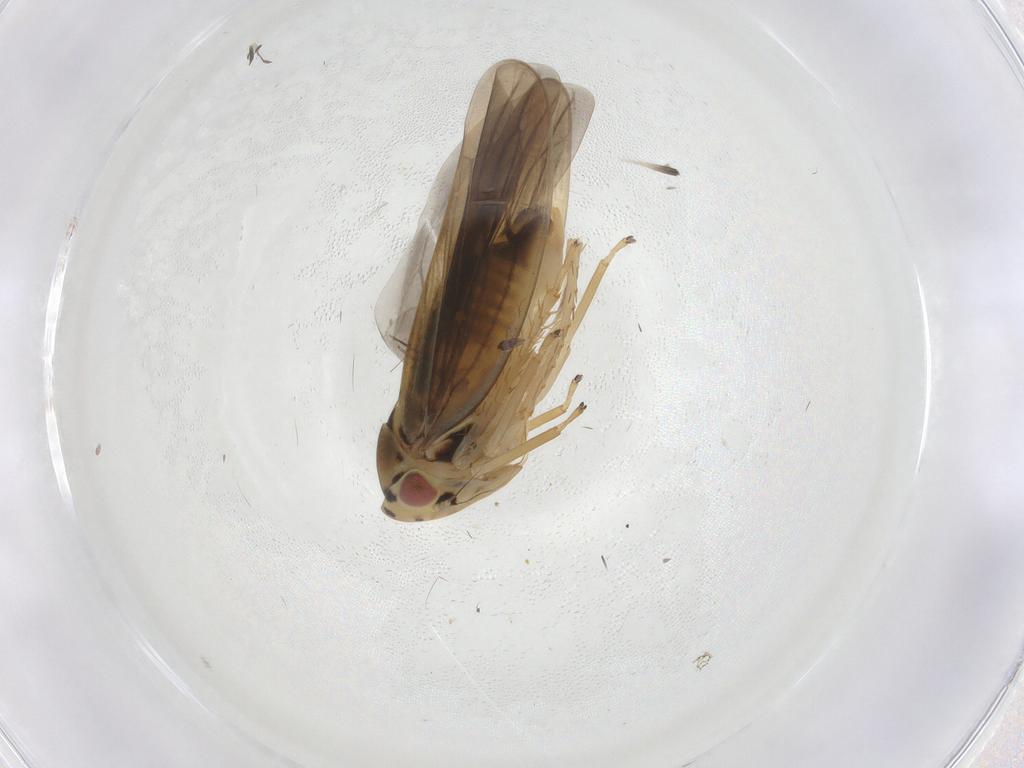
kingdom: Animalia
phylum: Arthropoda
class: Insecta
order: Hemiptera
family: Cicadellidae
